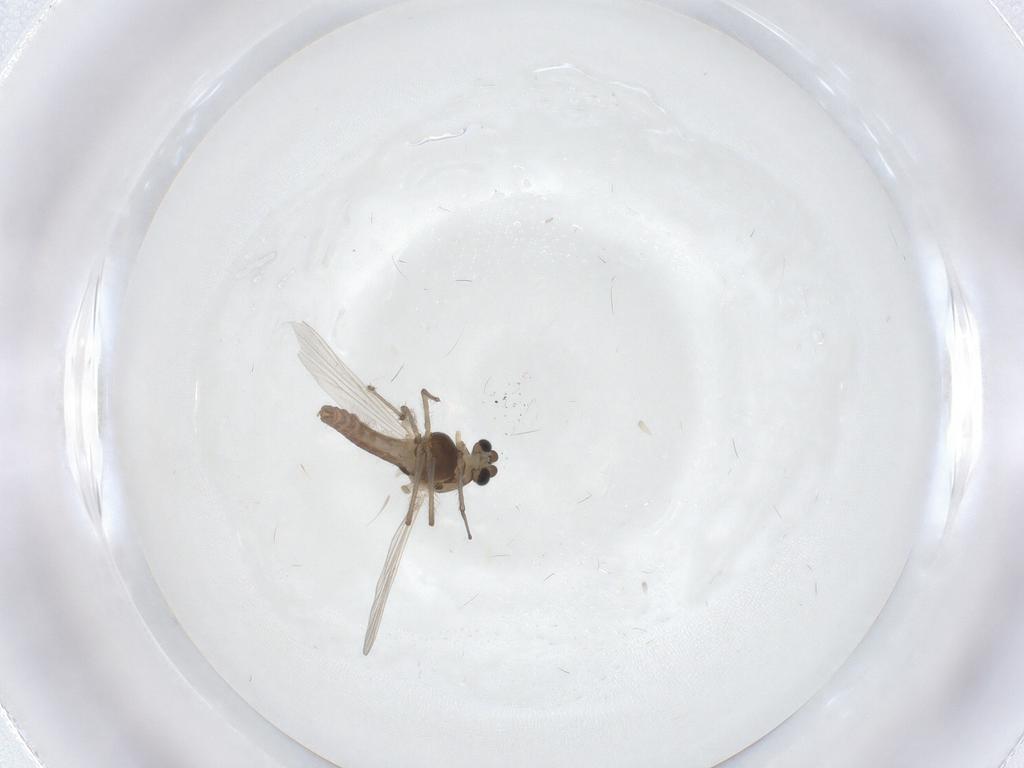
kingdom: Animalia
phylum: Arthropoda
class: Insecta
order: Diptera
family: Chironomidae
